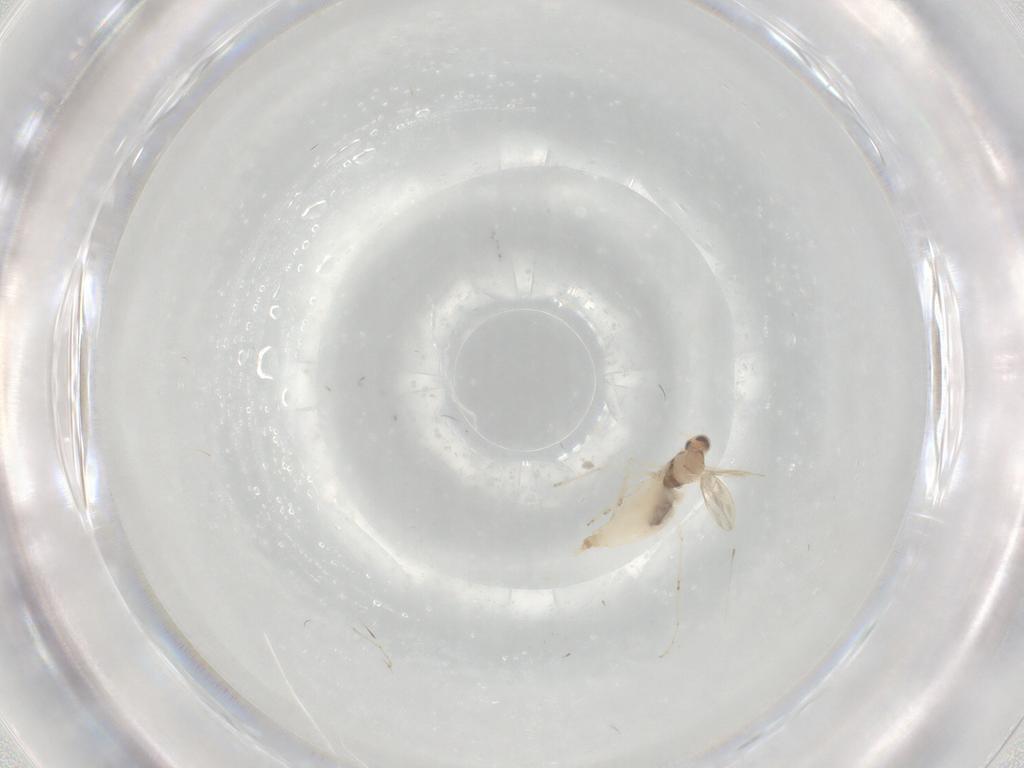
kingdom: Animalia
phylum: Arthropoda
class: Insecta
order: Diptera
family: Cecidomyiidae
